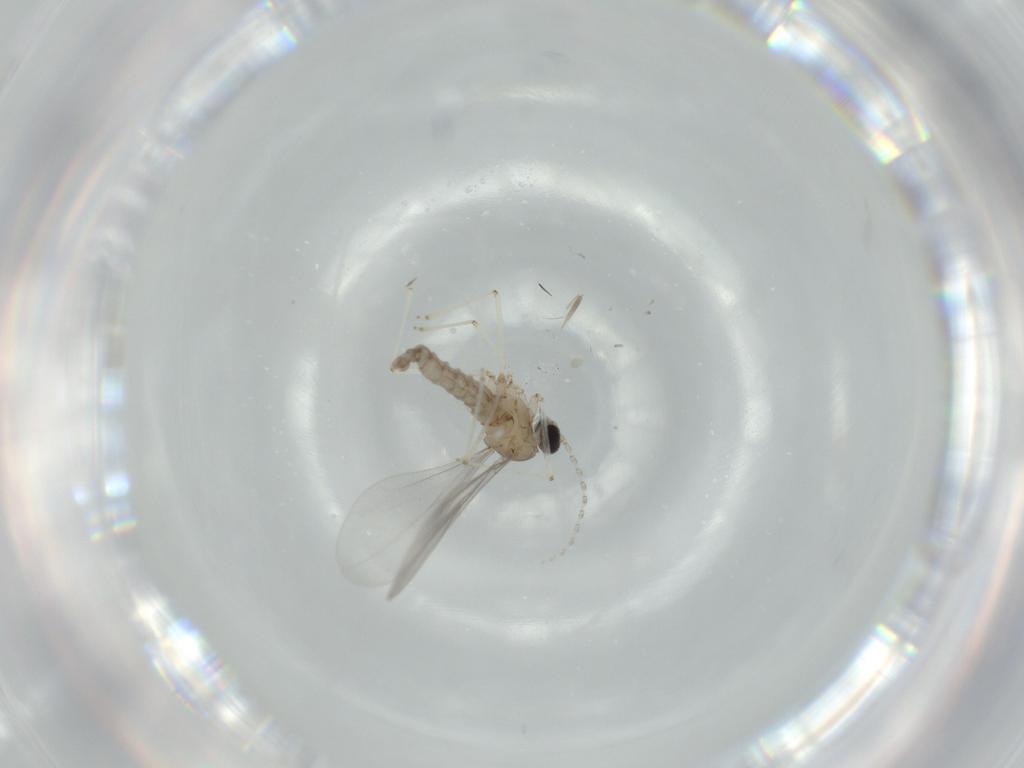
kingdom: Animalia
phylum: Arthropoda
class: Insecta
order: Diptera
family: Cecidomyiidae
